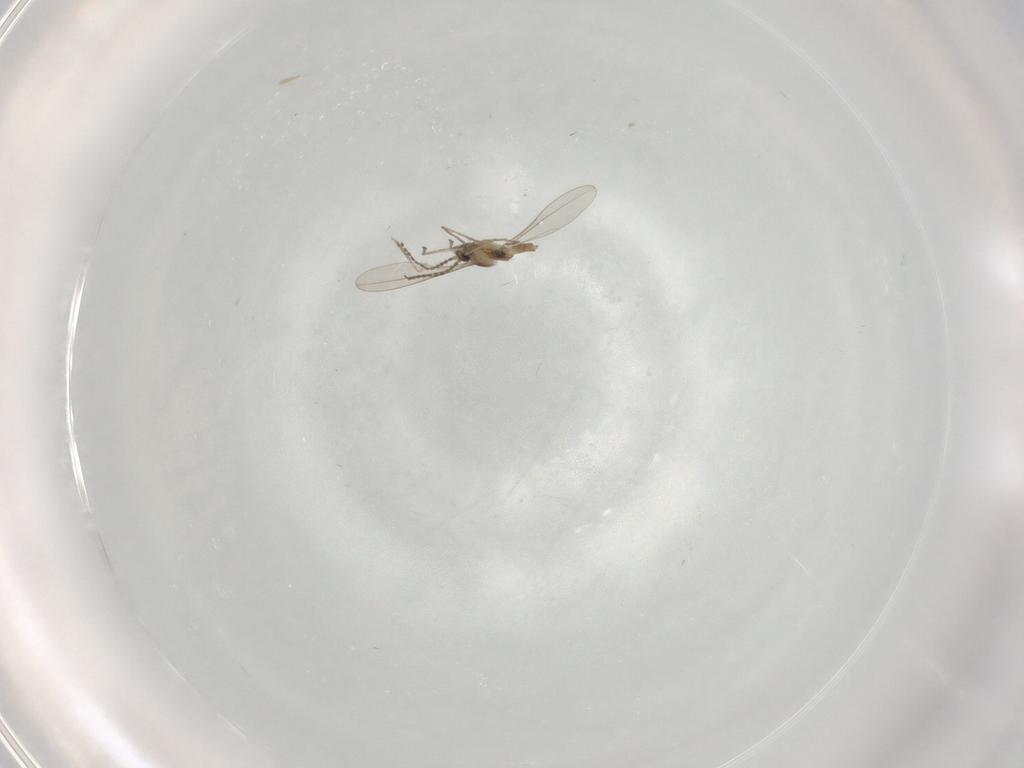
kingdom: Animalia
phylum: Arthropoda
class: Insecta
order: Diptera
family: Cecidomyiidae
